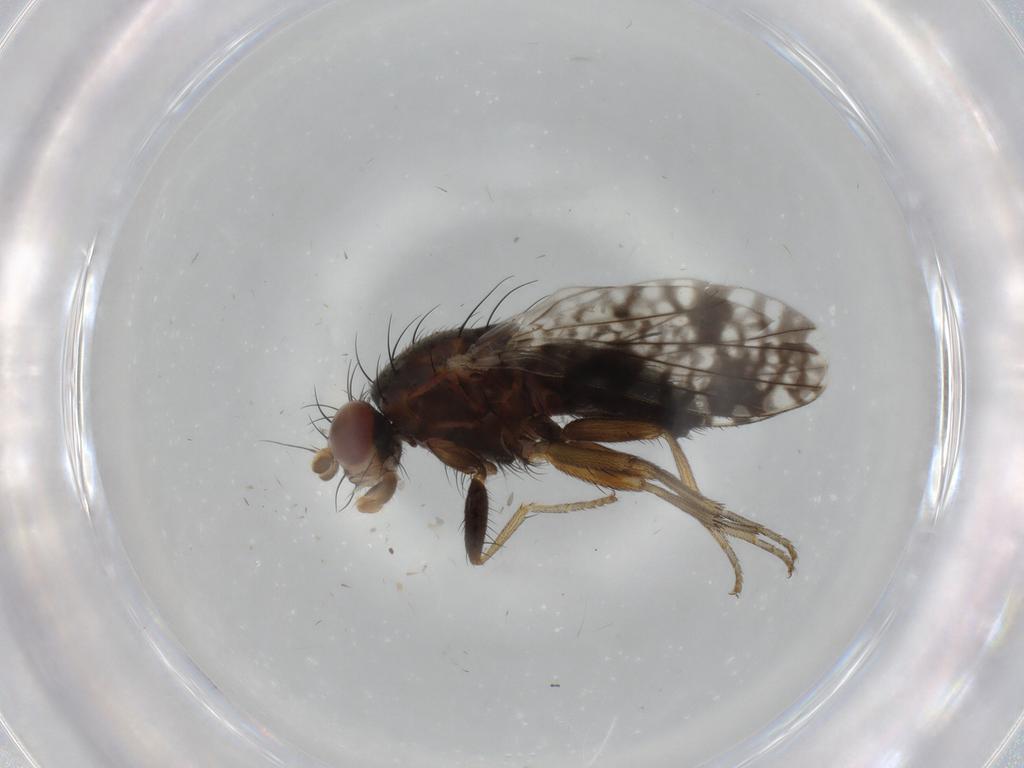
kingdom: Animalia
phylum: Arthropoda
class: Insecta
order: Diptera
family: Tephritidae
